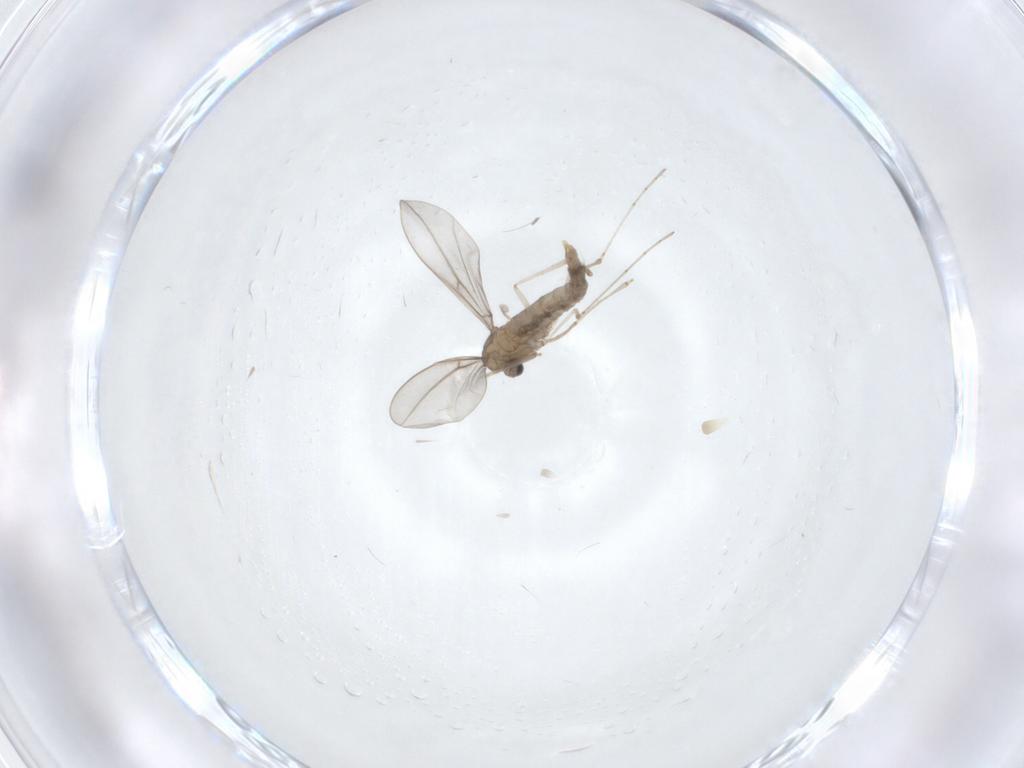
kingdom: Animalia
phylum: Arthropoda
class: Insecta
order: Diptera
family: Cecidomyiidae
